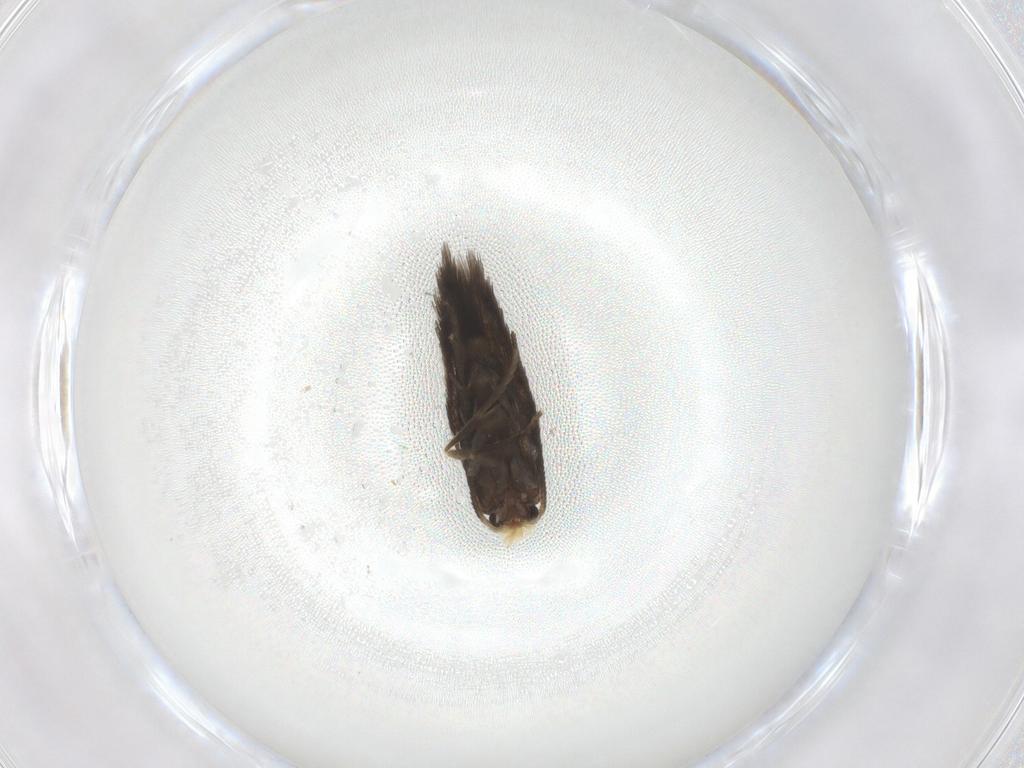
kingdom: Animalia
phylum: Arthropoda
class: Insecta
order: Lepidoptera
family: Nepticulidae
